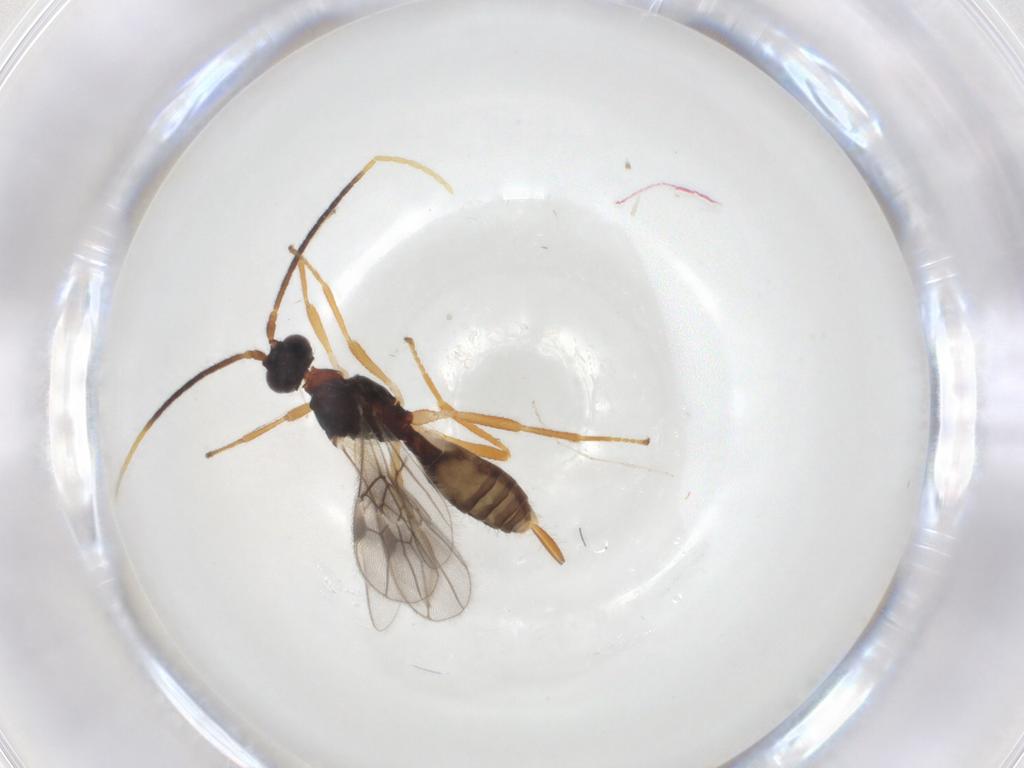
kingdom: Animalia
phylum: Arthropoda
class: Insecta
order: Hymenoptera
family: Braconidae
